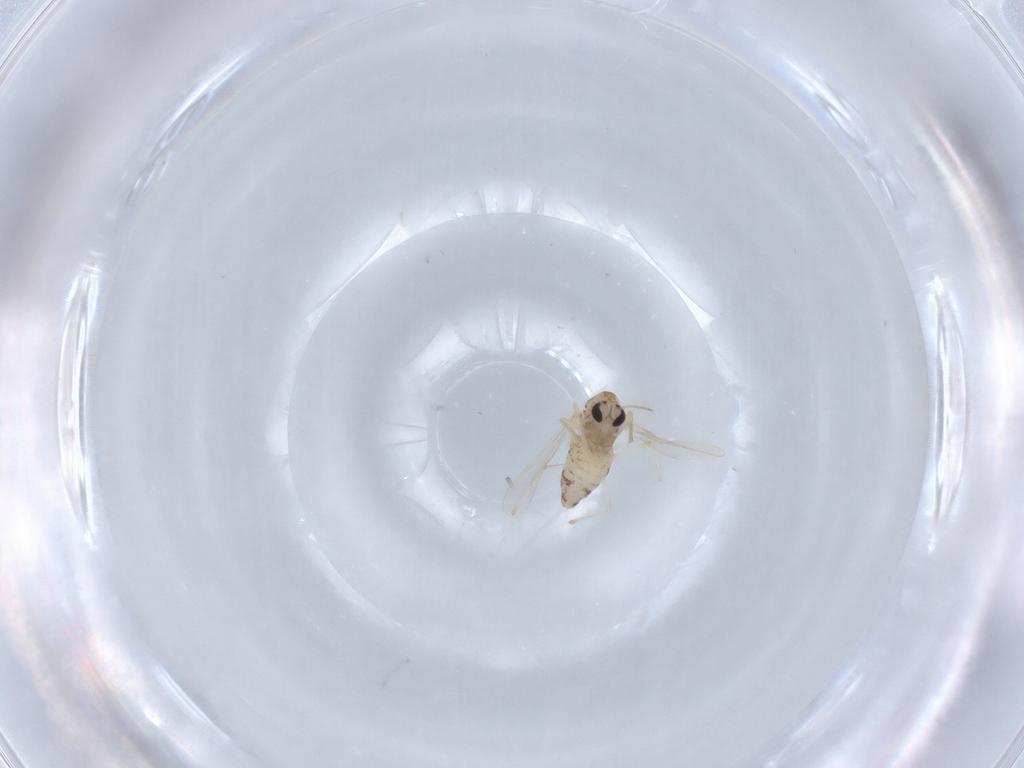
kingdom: Animalia
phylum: Arthropoda
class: Insecta
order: Diptera
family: Chironomidae
